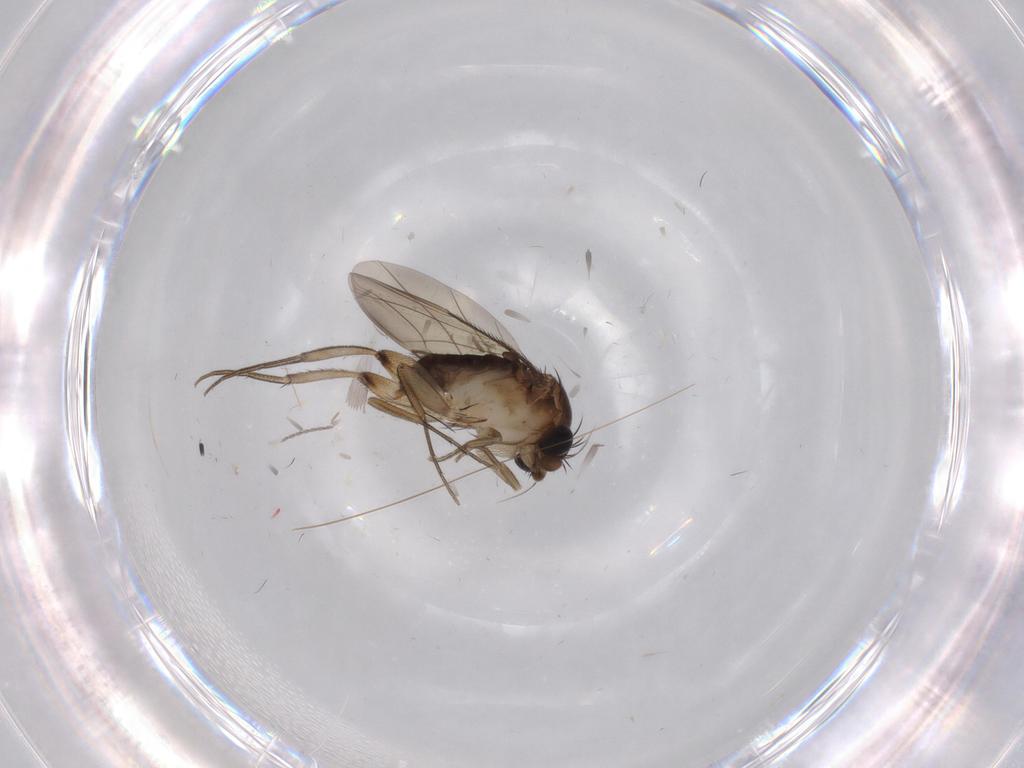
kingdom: Animalia
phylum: Arthropoda
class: Insecta
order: Diptera
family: Phoridae
